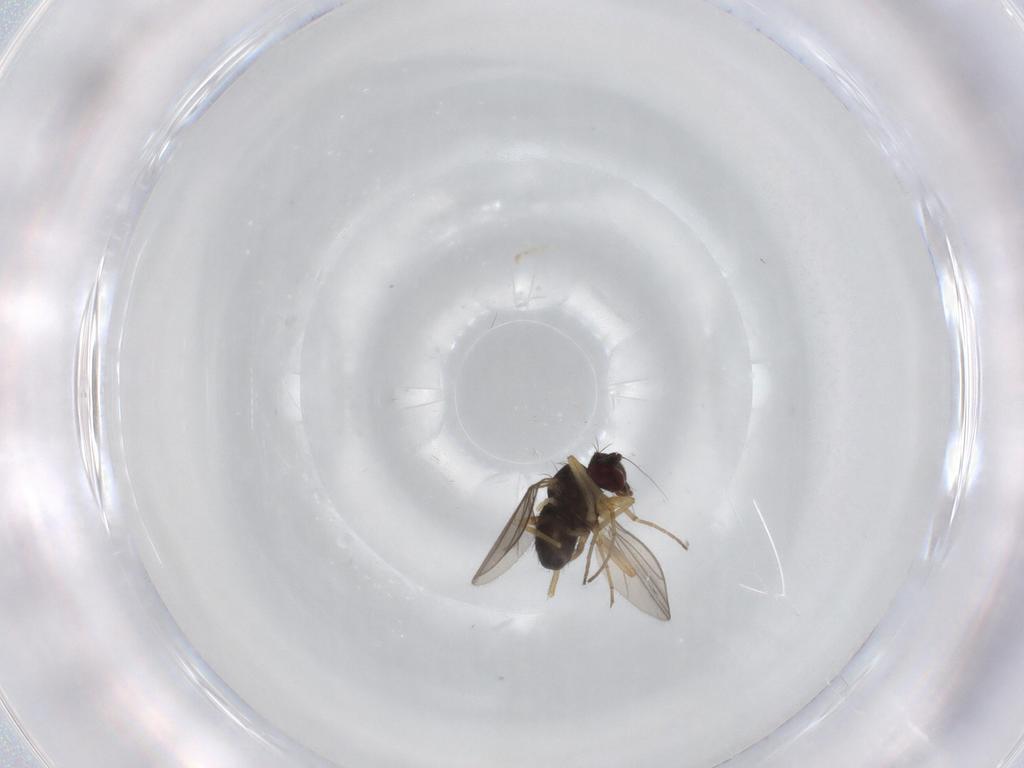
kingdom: Animalia
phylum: Arthropoda
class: Insecta
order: Diptera
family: Dolichopodidae
